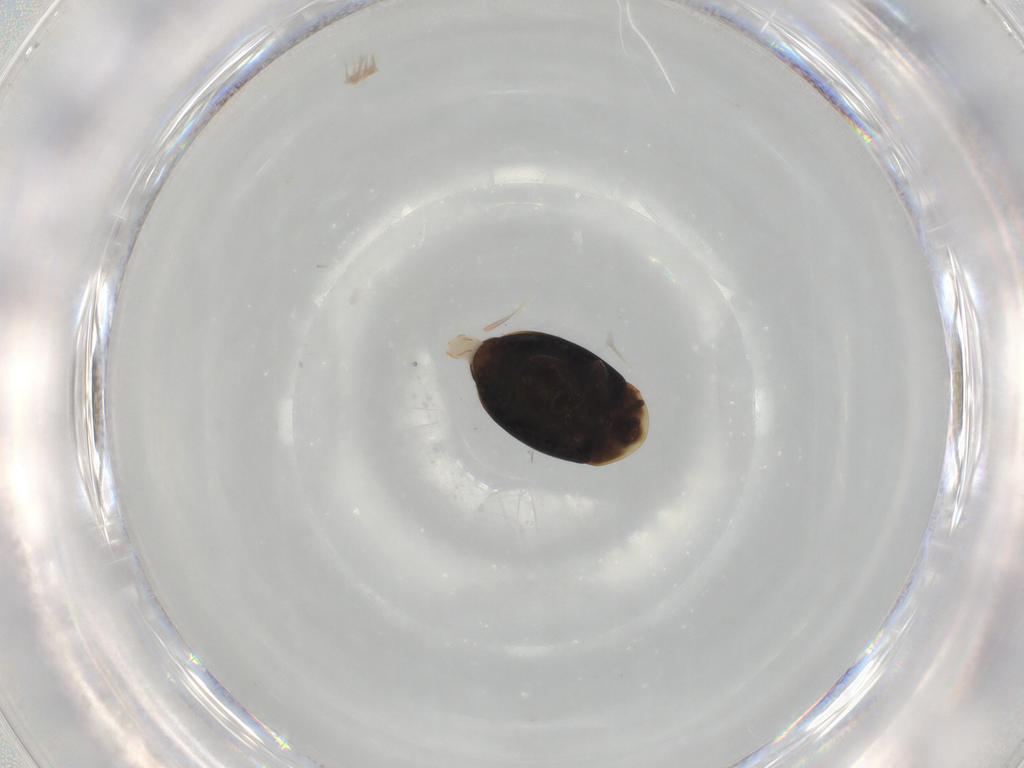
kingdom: Animalia
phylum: Arthropoda
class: Insecta
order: Coleoptera
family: Corylophidae
